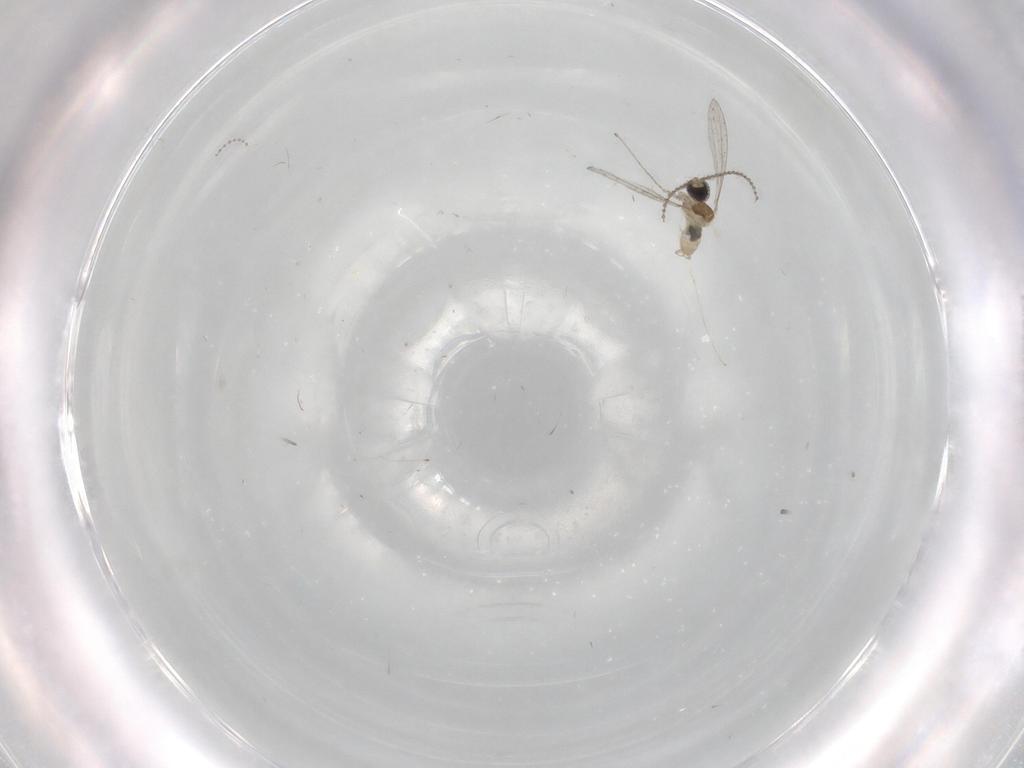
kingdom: Animalia
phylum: Arthropoda
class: Insecta
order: Diptera
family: Cecidomyiidae
